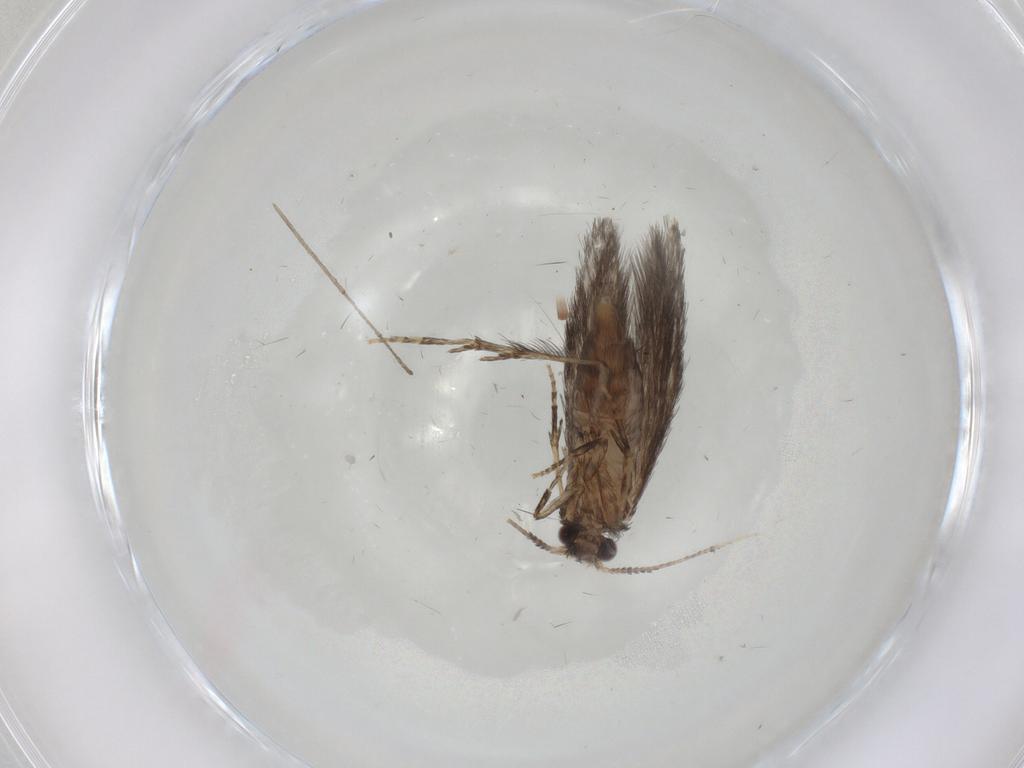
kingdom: Animalia
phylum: Arthropoda
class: Insecta
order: Trichoptera
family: Hydroptilidae
